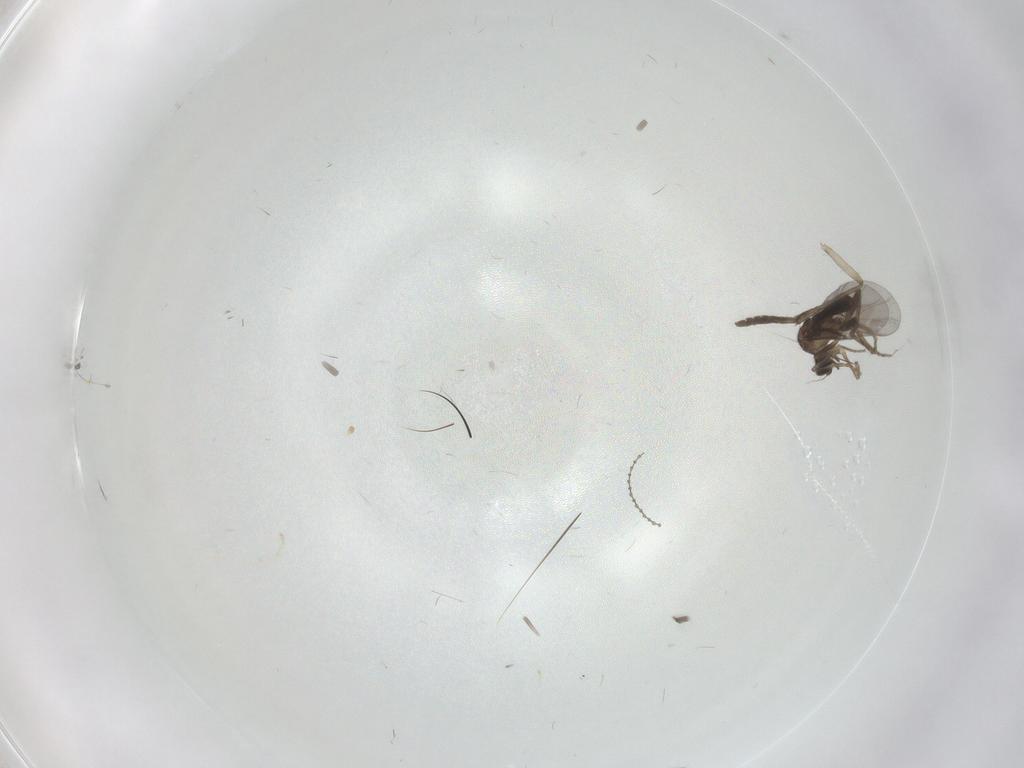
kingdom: Animalia
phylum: Arthropoda
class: Insecta
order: Diptera
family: Psychodidae
